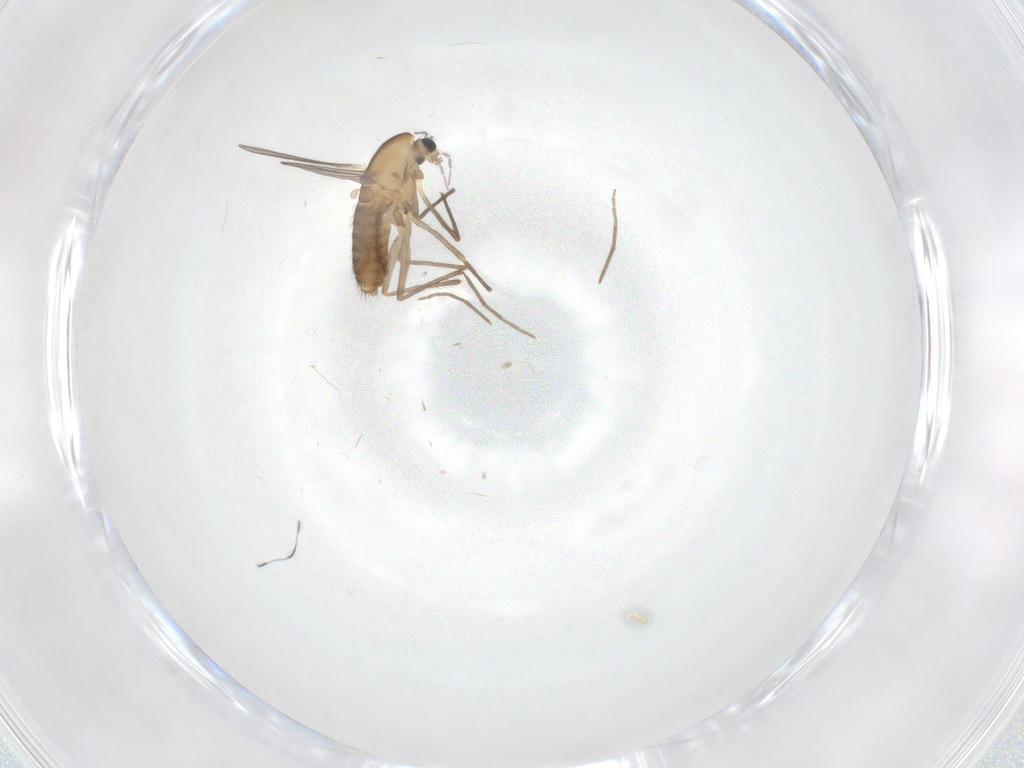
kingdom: Animalia
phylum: Arthropoda
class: Insecta
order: Diptera
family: Chironomidae
